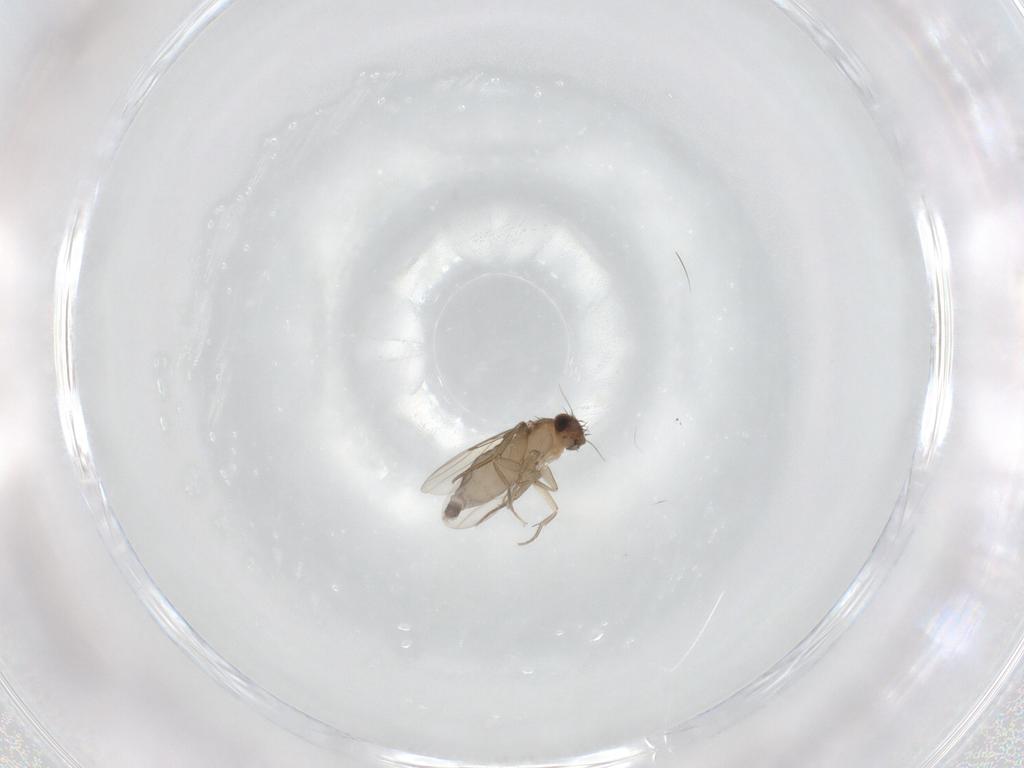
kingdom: Animalia
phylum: Arthropoda
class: Insecta
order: Diptera
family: Phoridae
